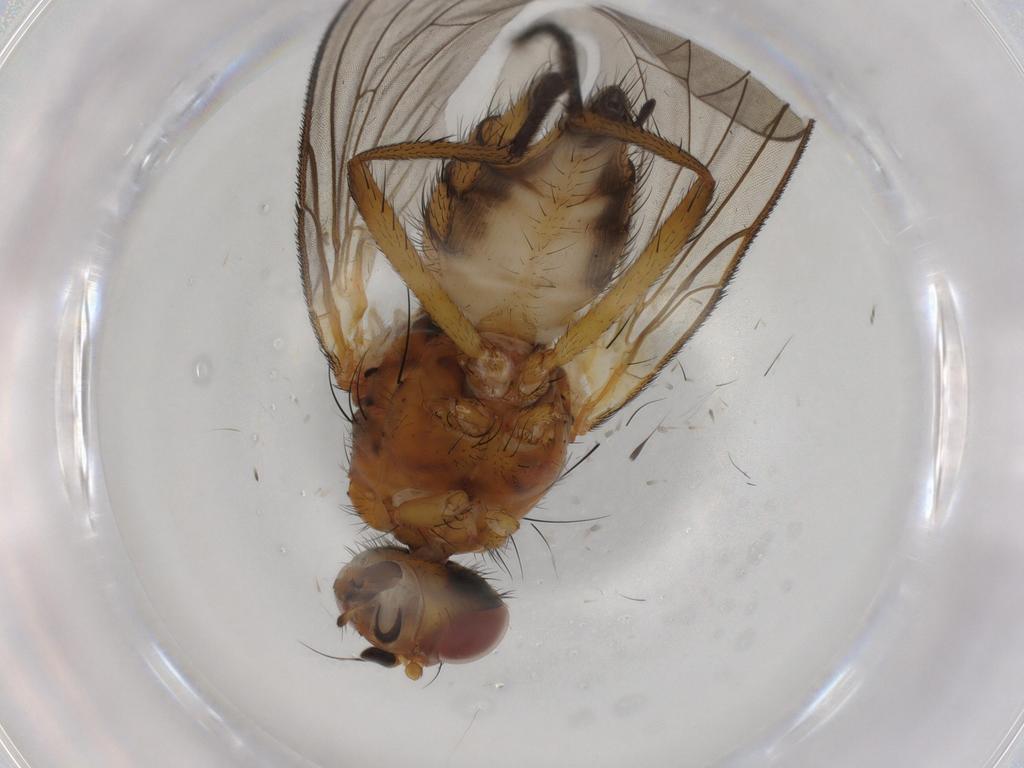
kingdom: Animalia
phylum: Arthropoda
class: Insecta
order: Diptera
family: Anthomyiidae
